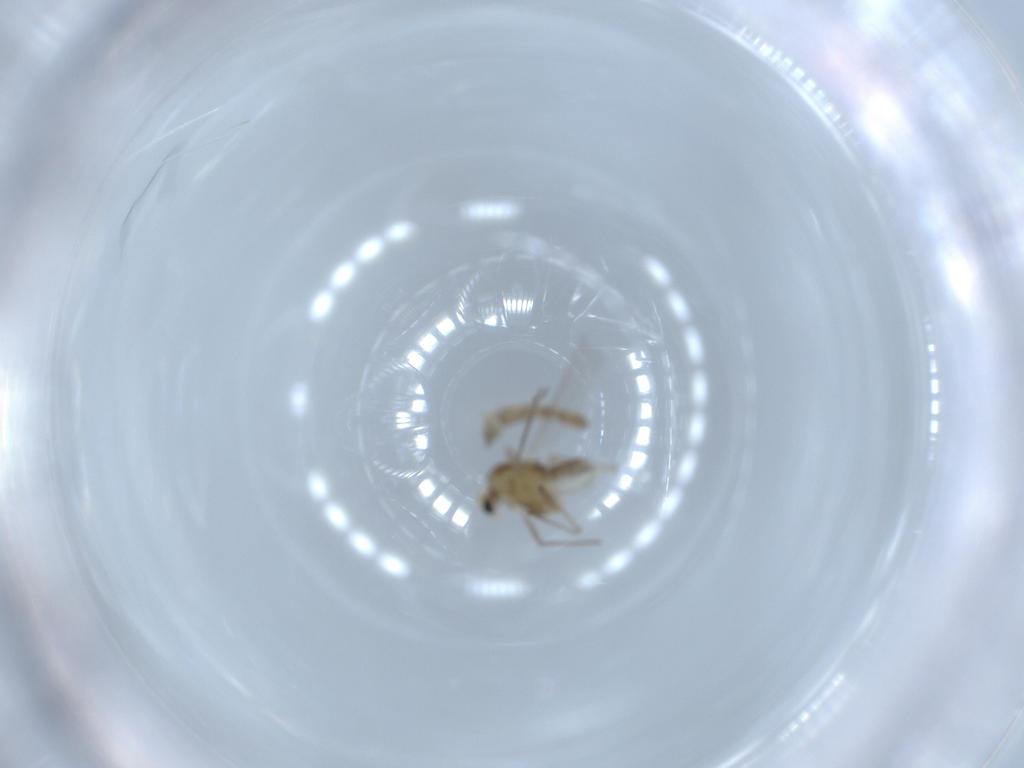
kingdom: Animalia
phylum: Arthropoda
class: Insecta
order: Diptera
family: Chironomidae
